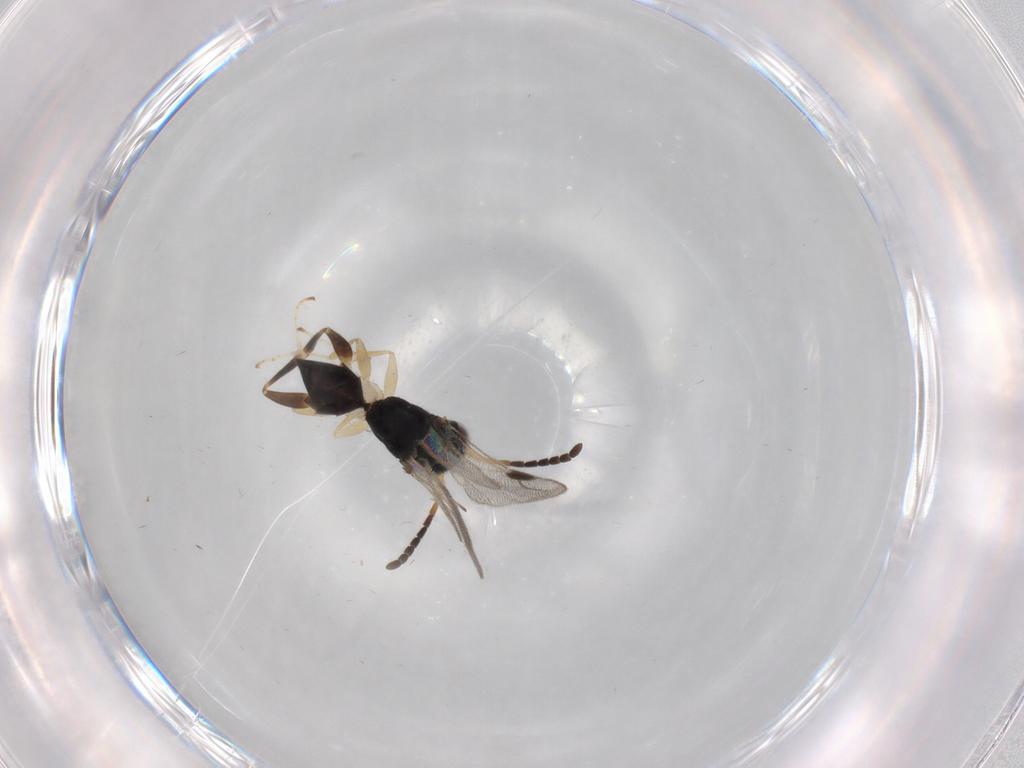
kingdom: Animalia
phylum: Arthropoda
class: Insecta
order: Hymenoptera
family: Dryinidae
